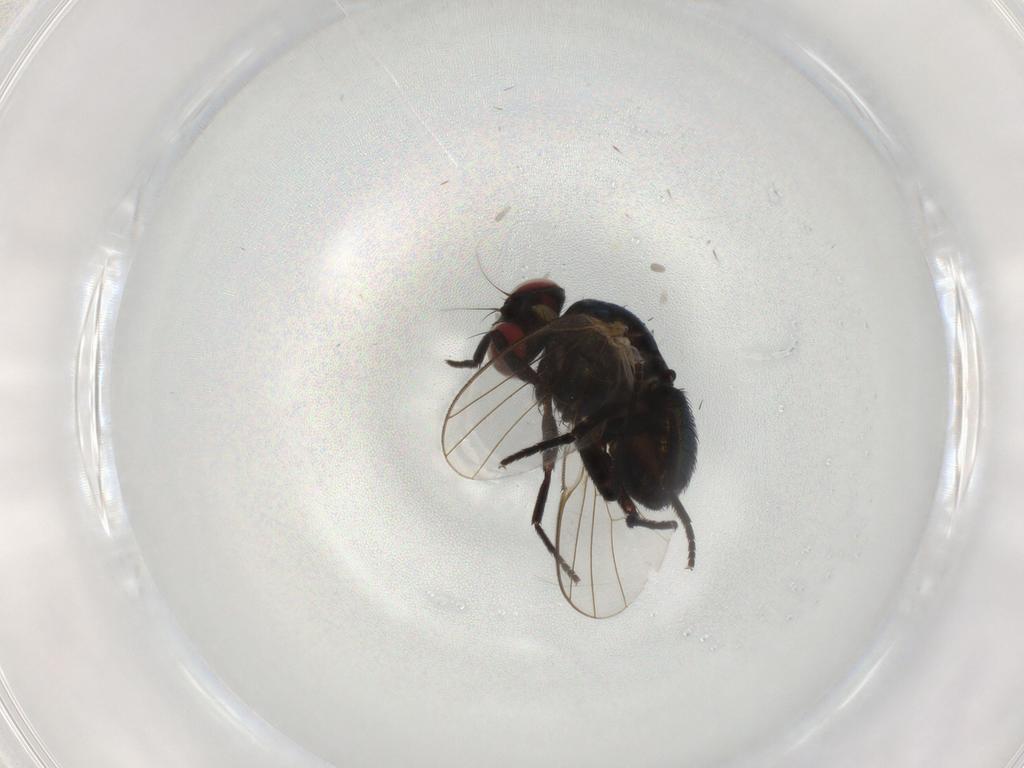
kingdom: Animalia
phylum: Arthropoda
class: Insecta
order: Diptera
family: Agromyzidae
